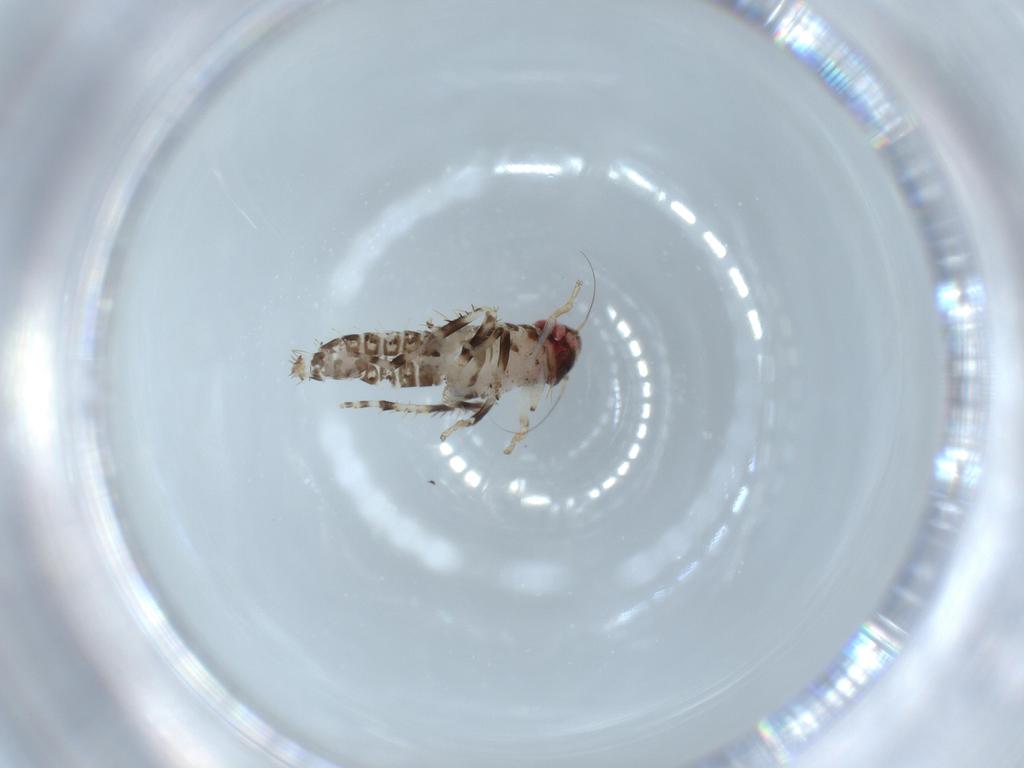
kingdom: Animalia
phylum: Arthropoda
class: Insecta
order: Hemiptera
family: Cicadellidae
